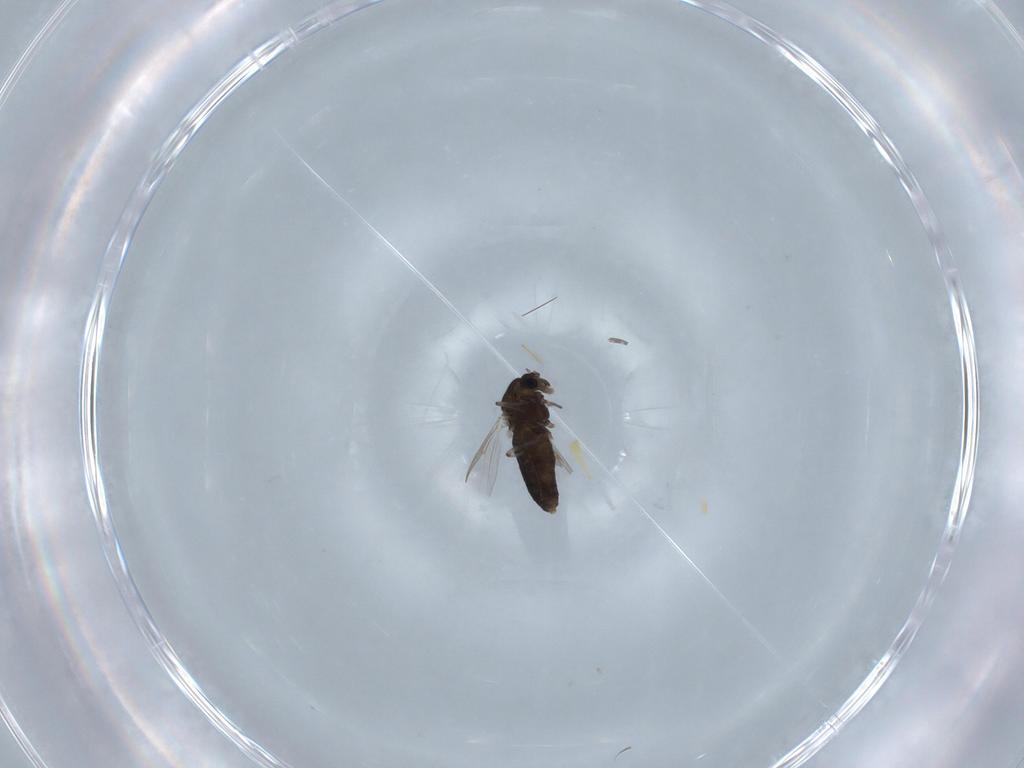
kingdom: Animalia
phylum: Arthropoda
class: Insecta
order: Diptera
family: Chironomidae
